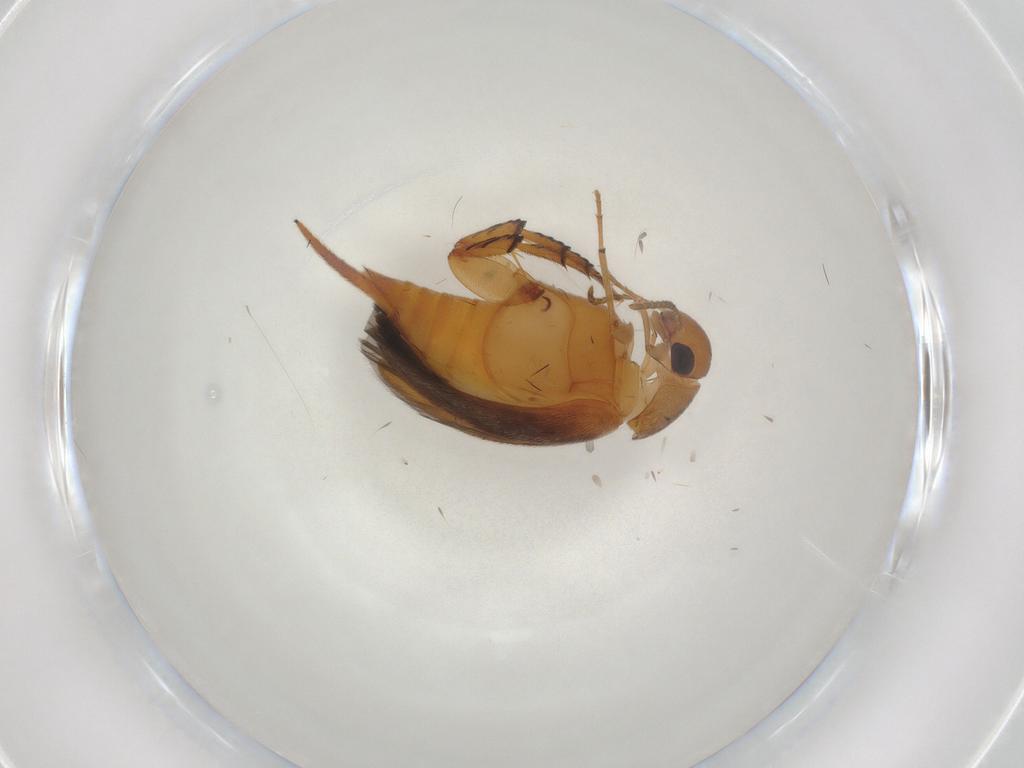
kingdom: Animalia
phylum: Arthropoda
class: Insecta
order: Coleoptera
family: Mordellidae
